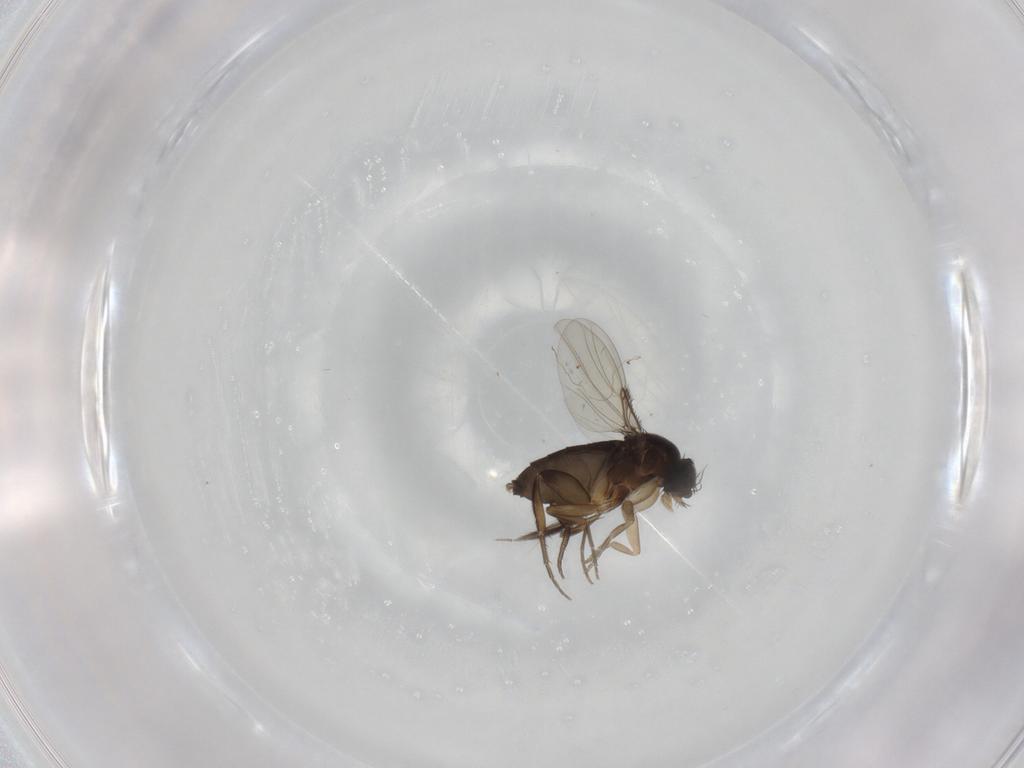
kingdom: Animalia
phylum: Arthropoda
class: Insecta
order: Diptera
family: Phoridae
